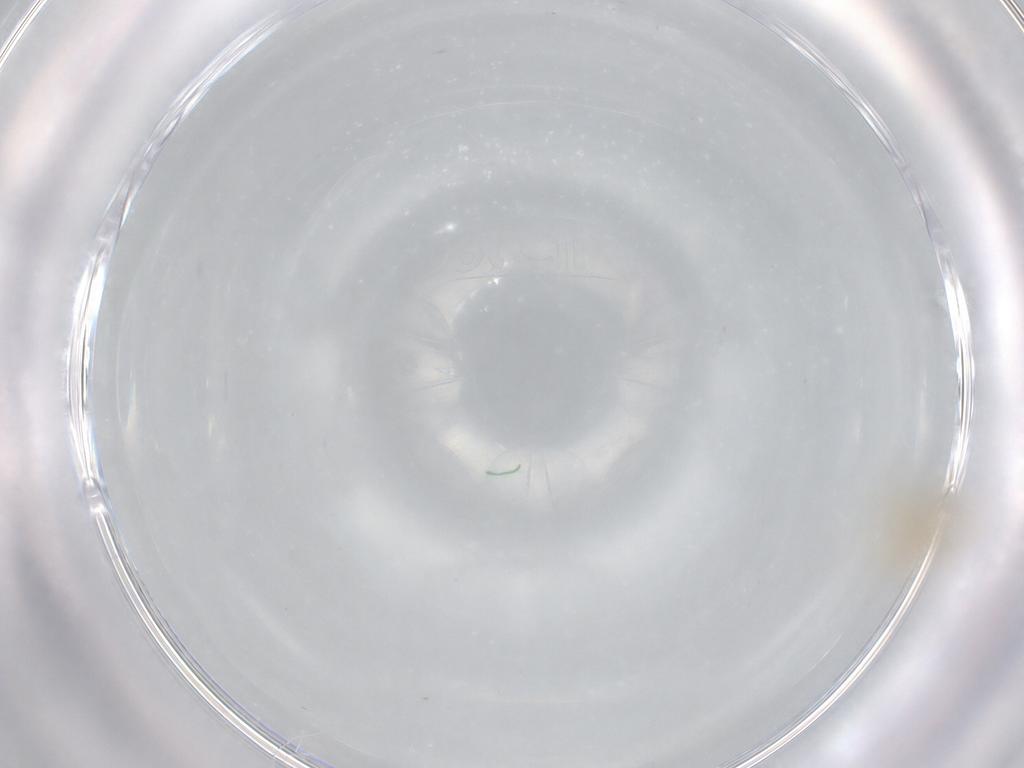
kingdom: Animalia
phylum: Arthropoda
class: Insecta
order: Diptera
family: Chironomidae
